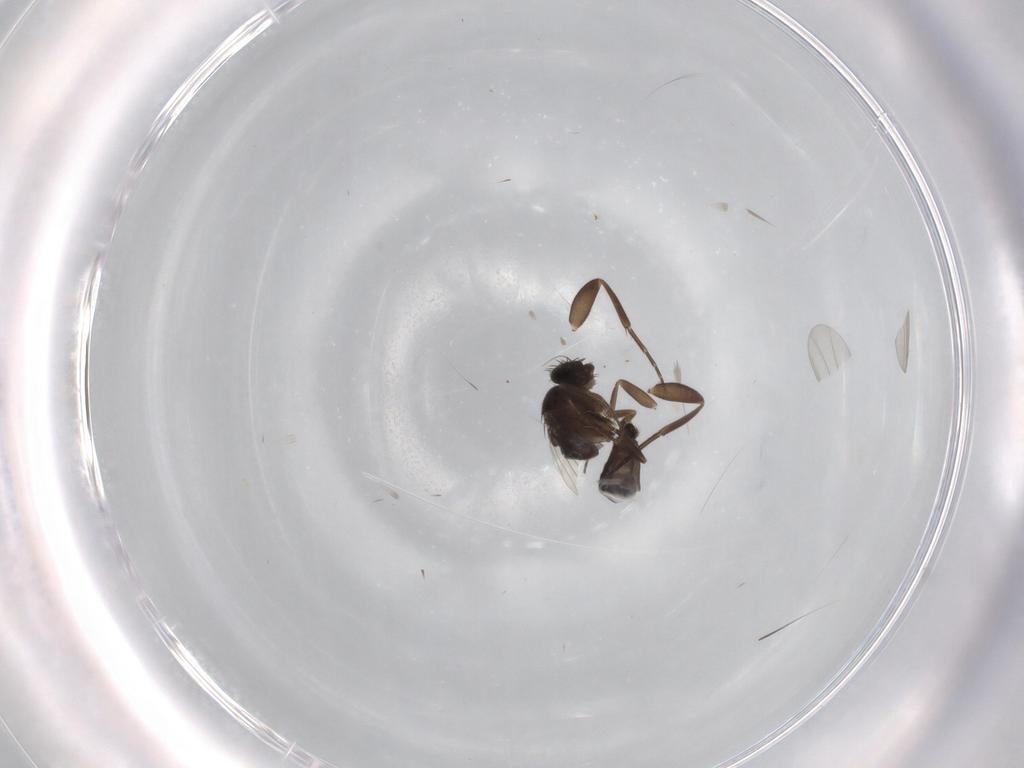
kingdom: Animalia
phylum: Arthropoda
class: Insecta
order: Diptera
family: Phoridae
